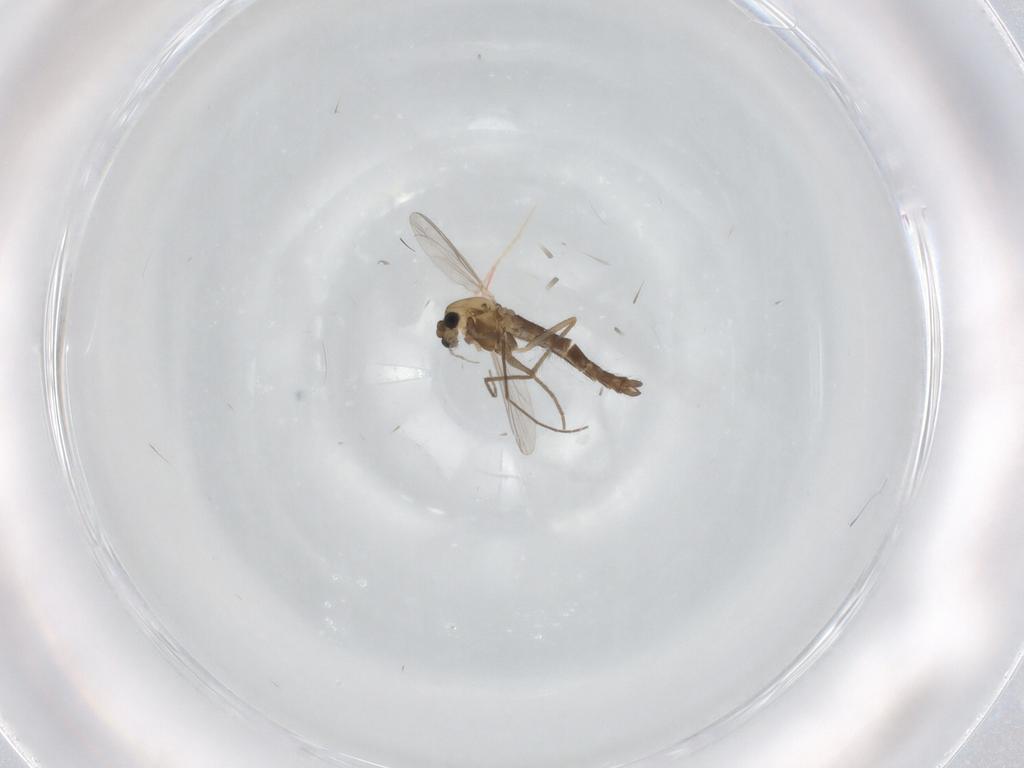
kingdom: Animalia
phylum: Arthropoda
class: Insecta
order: Diptera
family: Chironomidae
